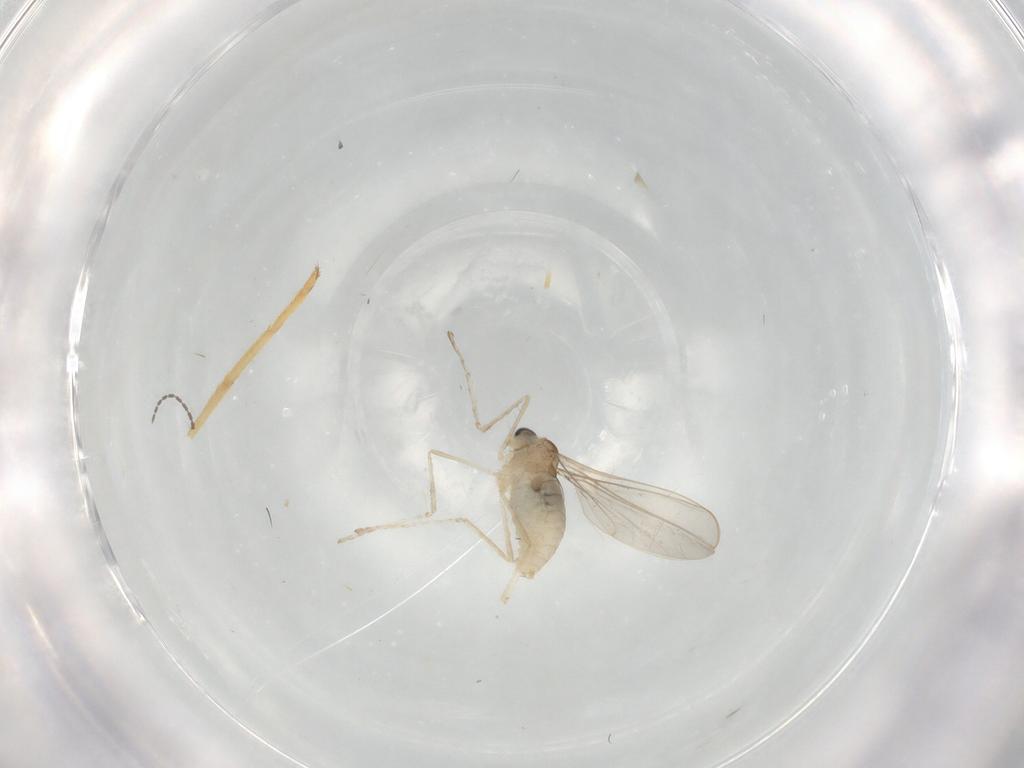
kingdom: Animalia
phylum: Arthropoda
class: Insecta
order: Diptera
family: Cecidomyiidae
